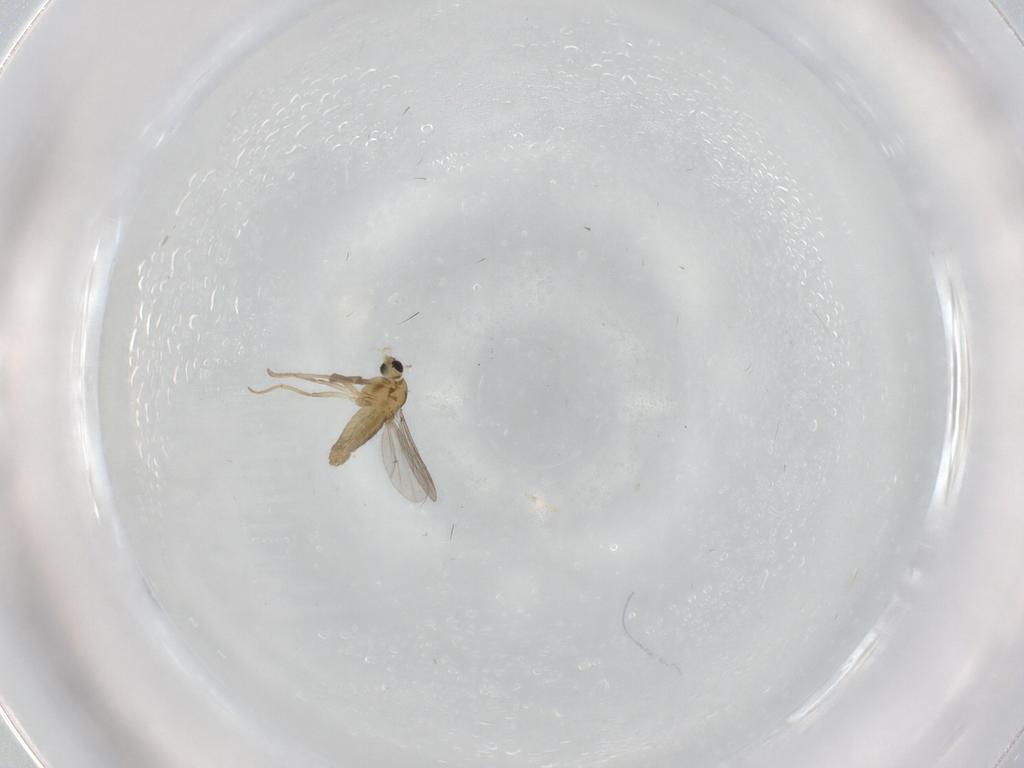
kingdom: Animalia
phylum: Arthropoda
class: Insecta
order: Diptera
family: Chironomidae
